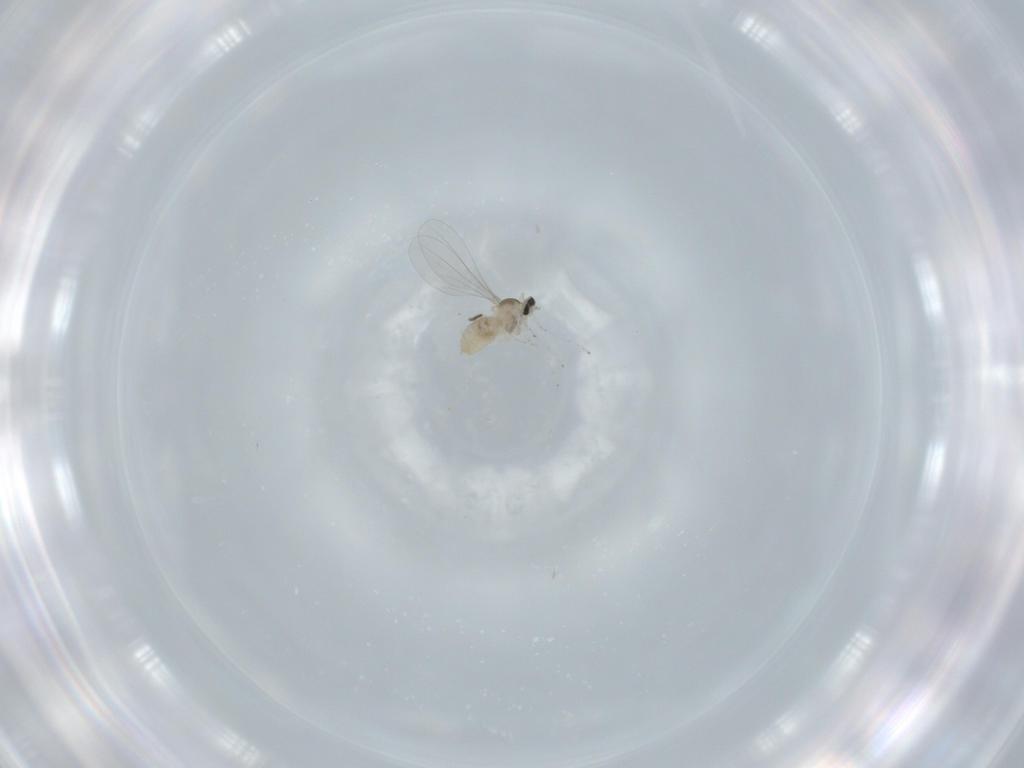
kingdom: Animalia
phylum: Arthropoda
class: Insecta
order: Diptera
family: Cecidomyiidae
